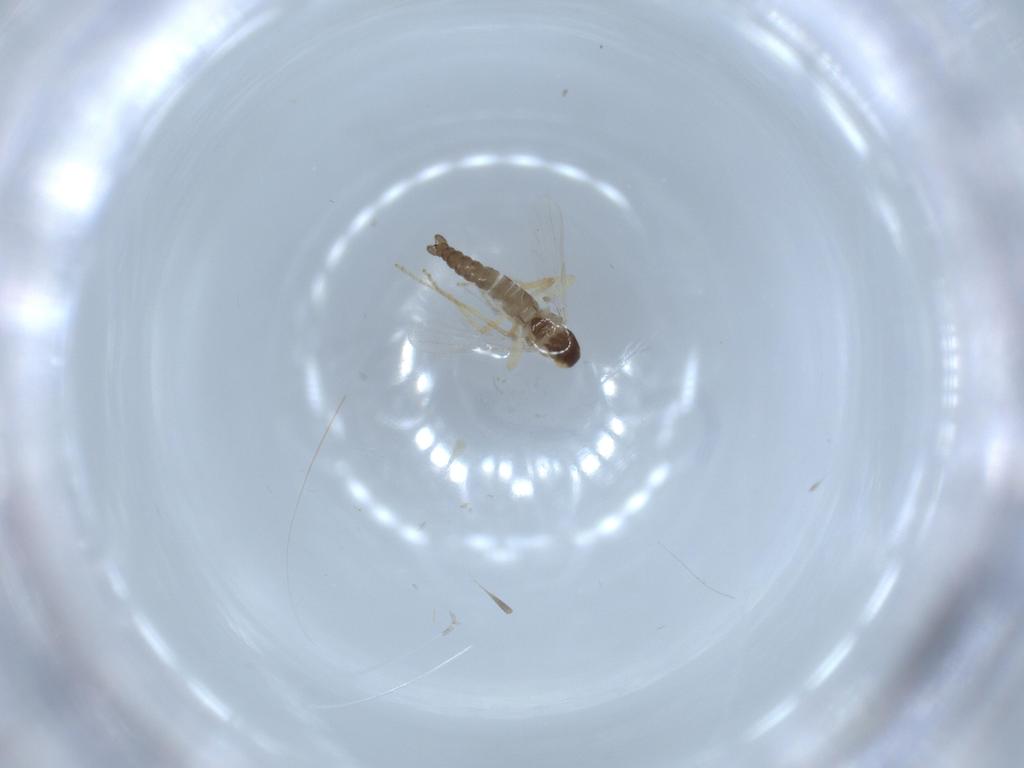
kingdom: Animalia
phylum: Arthropoda
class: Insecta
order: Diptera
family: Ceratopogonidae
